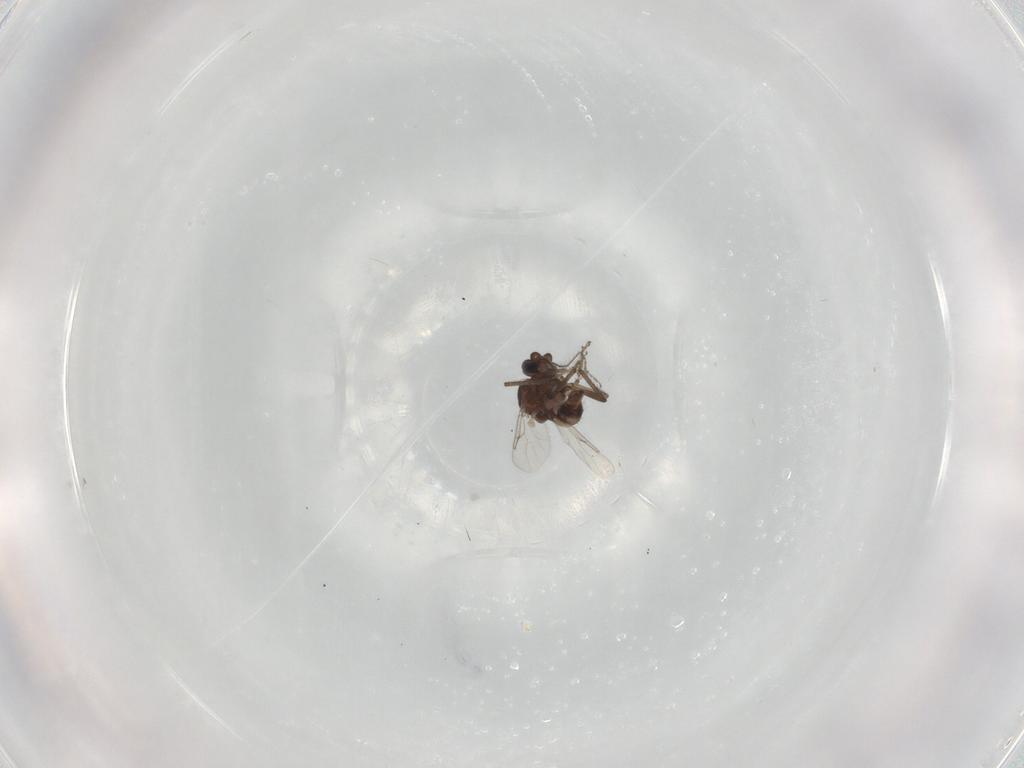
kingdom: Animalia
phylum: Arthropoda
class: Insecta
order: Diptera
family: Ceratopogonidae
